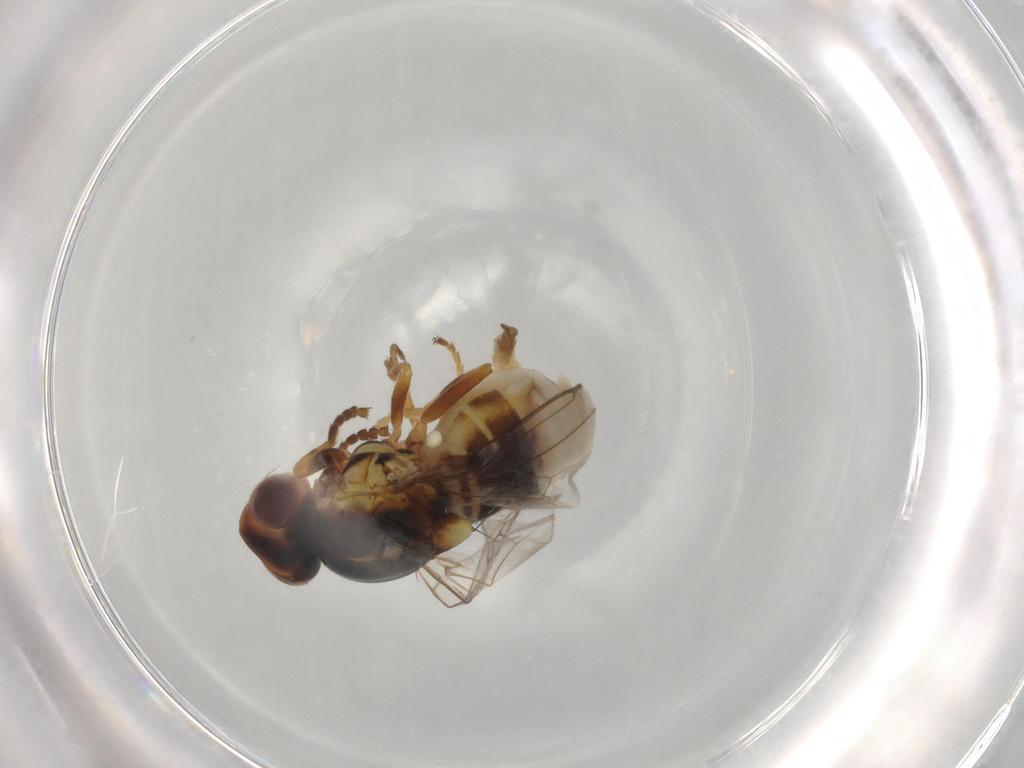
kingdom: Animalia
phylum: Arthropoda
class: Insecta
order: Diptera
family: Chloropidae
